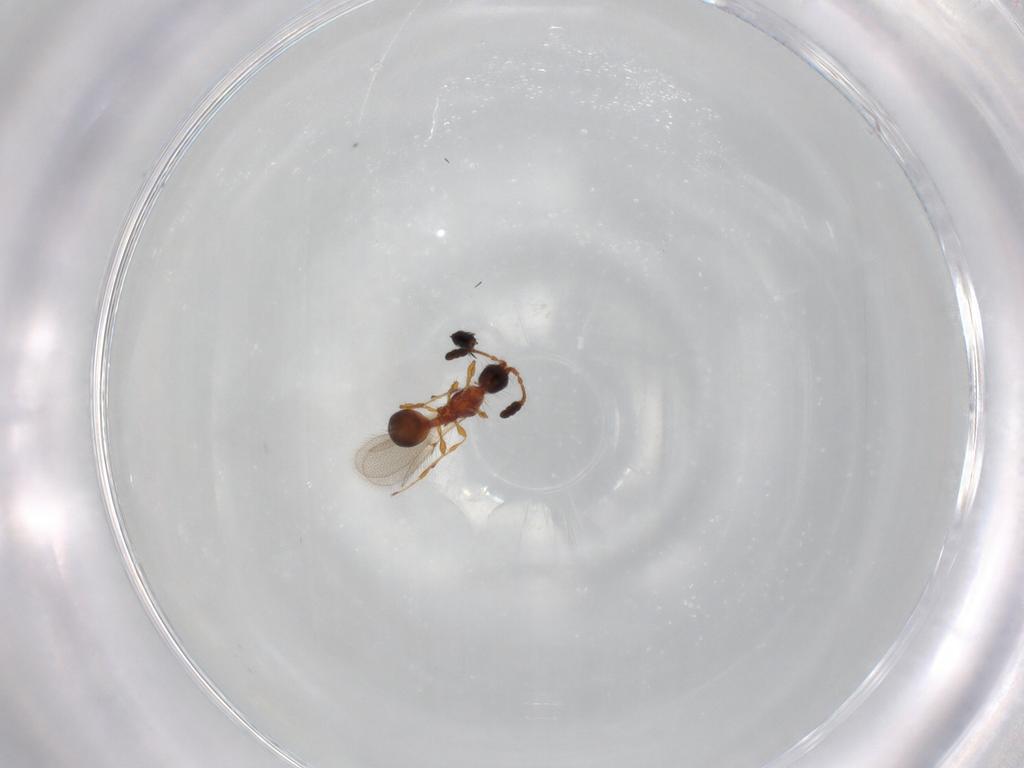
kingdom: Animalia
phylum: Arthropoda
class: Insecta
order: Hymenoptera
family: Diapriidae
